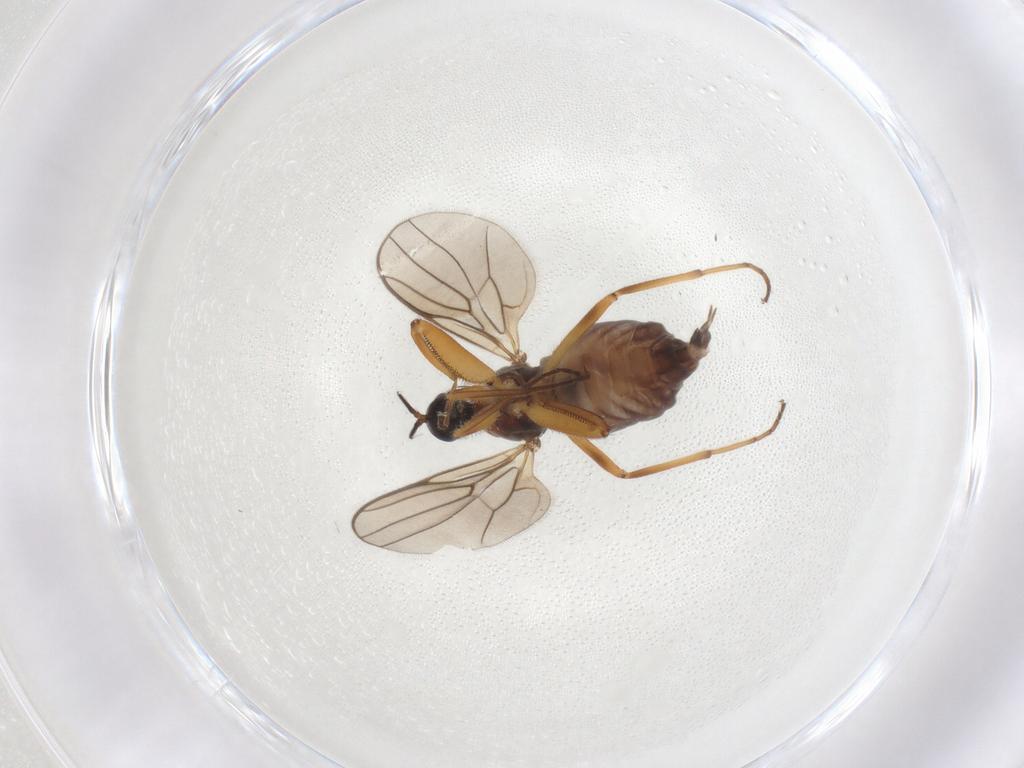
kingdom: Animalia
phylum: Arthropoda
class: Insecta
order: Diptera
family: Hybotidae
